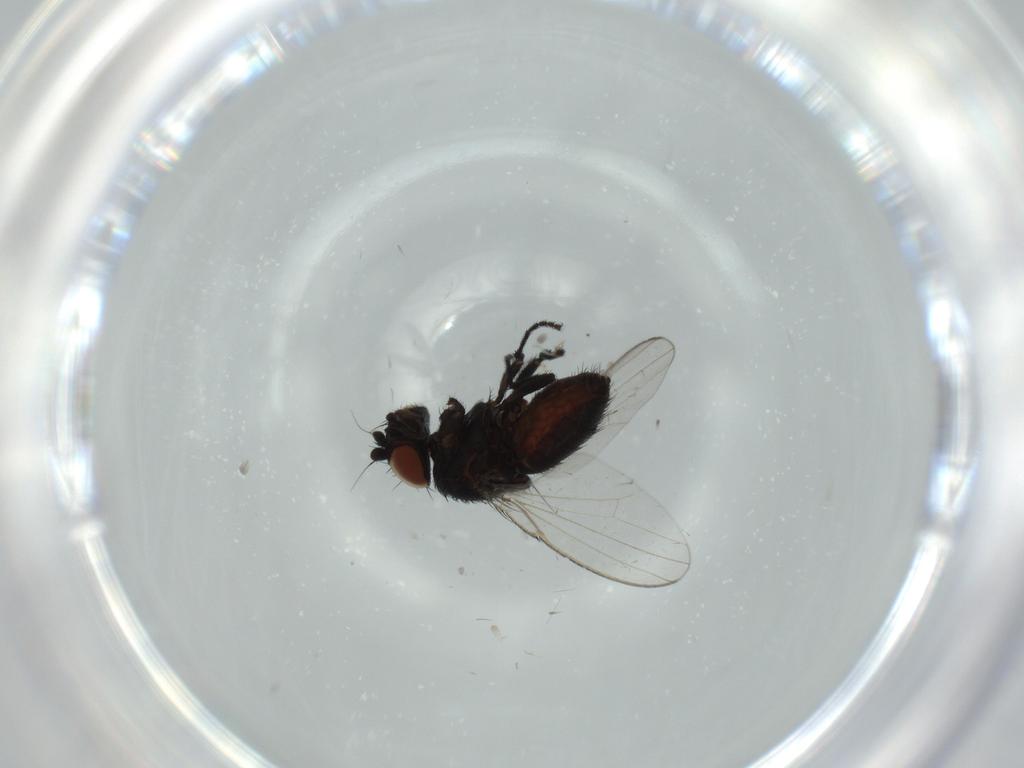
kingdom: Animalia
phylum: Arthropoda
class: Insecta
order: Diptera
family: Milichiidae
